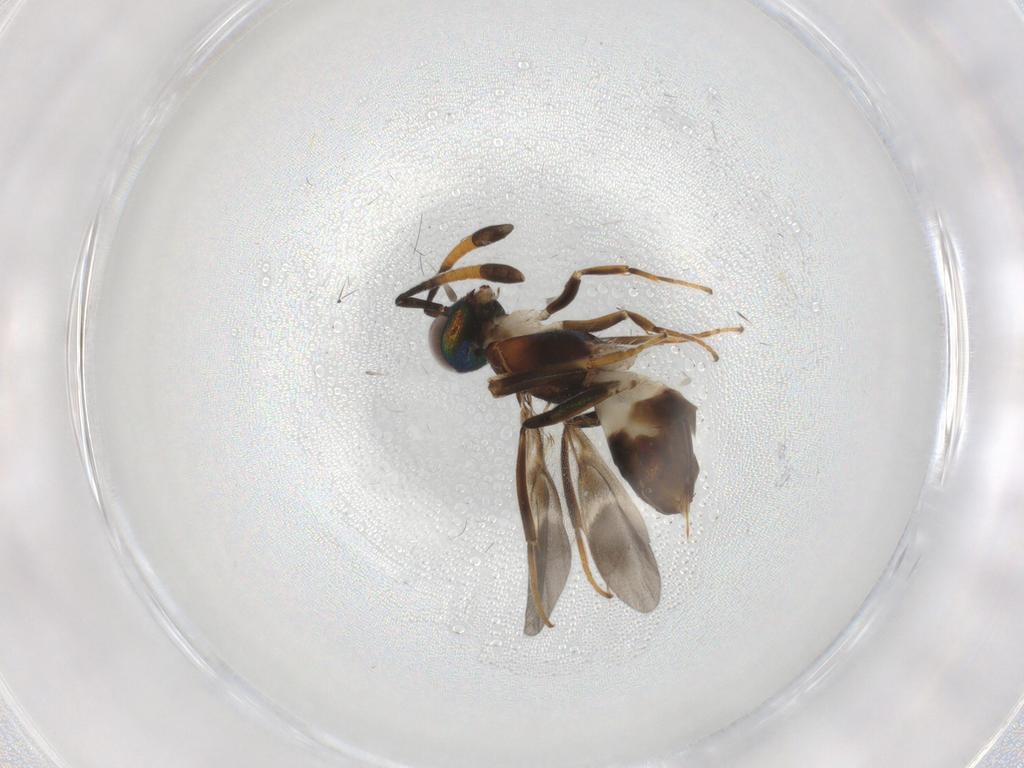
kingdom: Animalia
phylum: Arthropoda
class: Insecta
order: Hymenoptera
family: Eupelmidae
